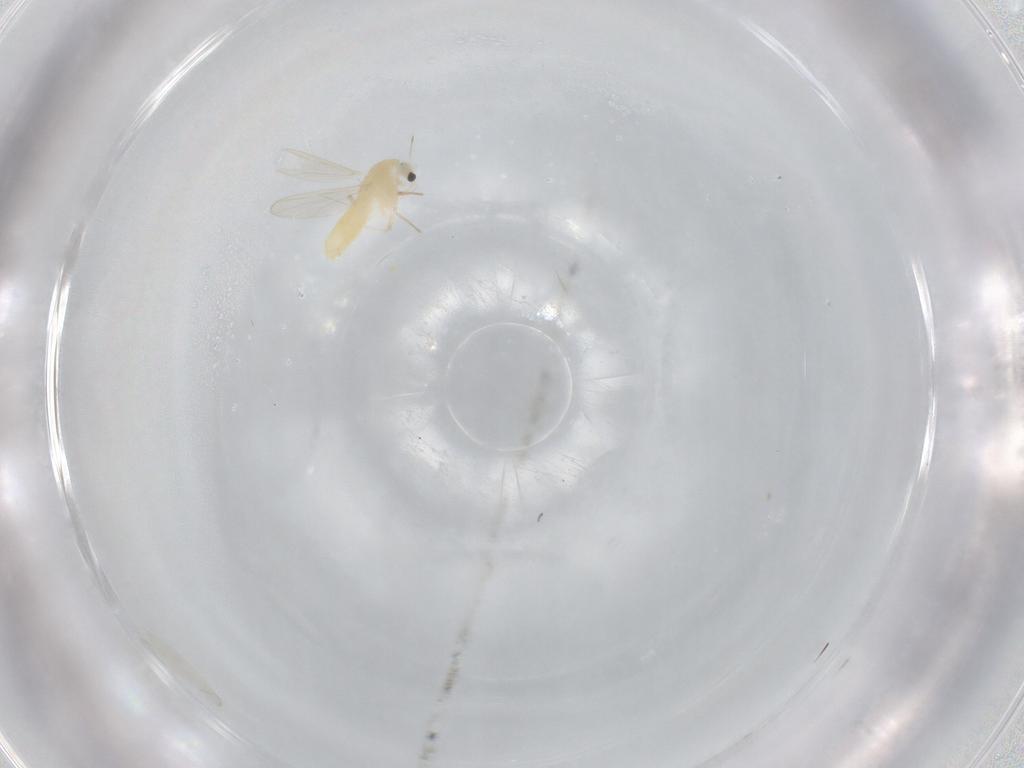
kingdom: Animalia
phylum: Arthropoda
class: Insecta
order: Diptera
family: Chironomidae
